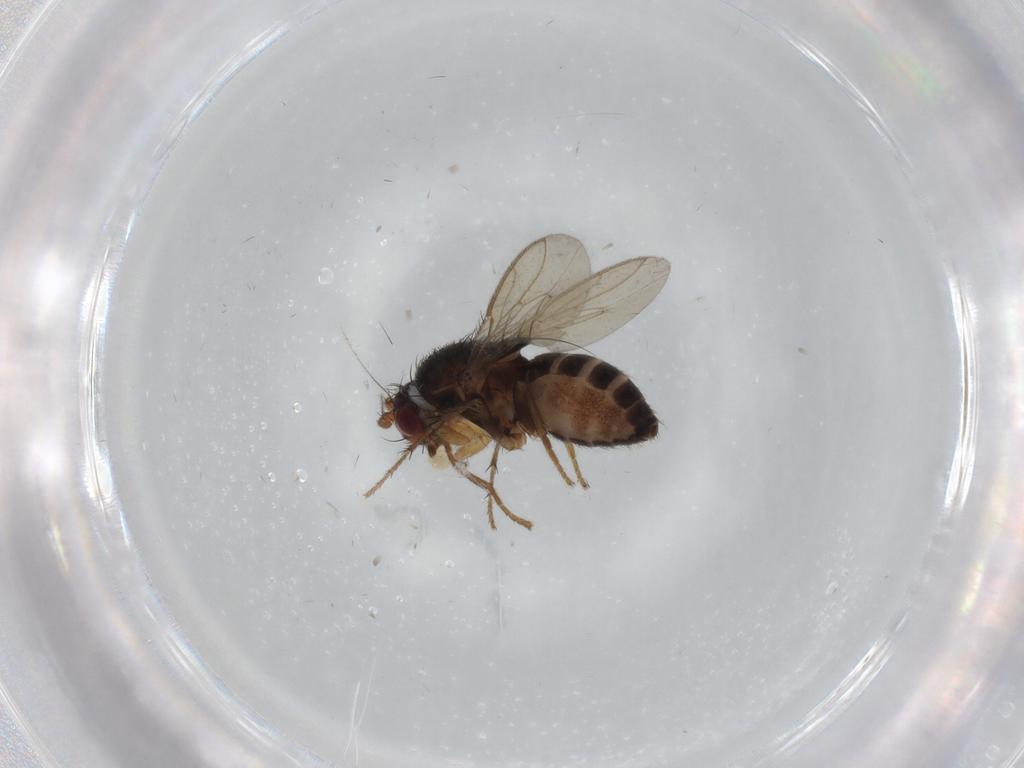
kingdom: Animalia
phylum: Arthropoda
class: Insecta
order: Diptera
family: Sphaeroceridae
